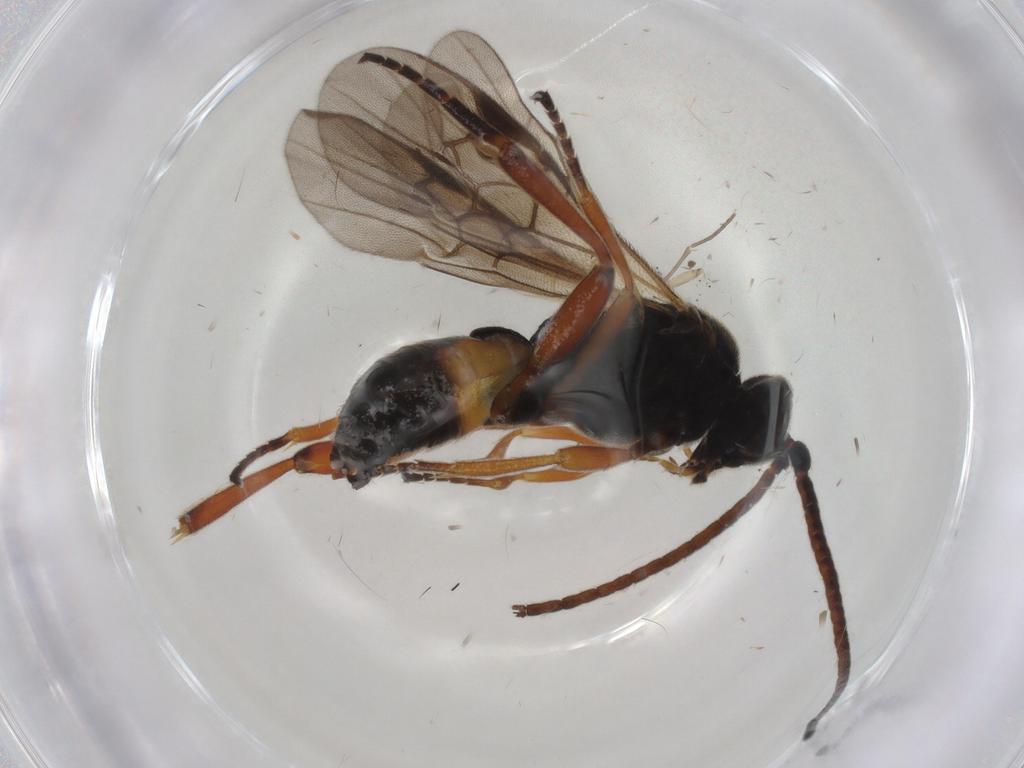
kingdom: Animalia
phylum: Arthropoda
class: Insecta
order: Hymenoptera
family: Braconidae
